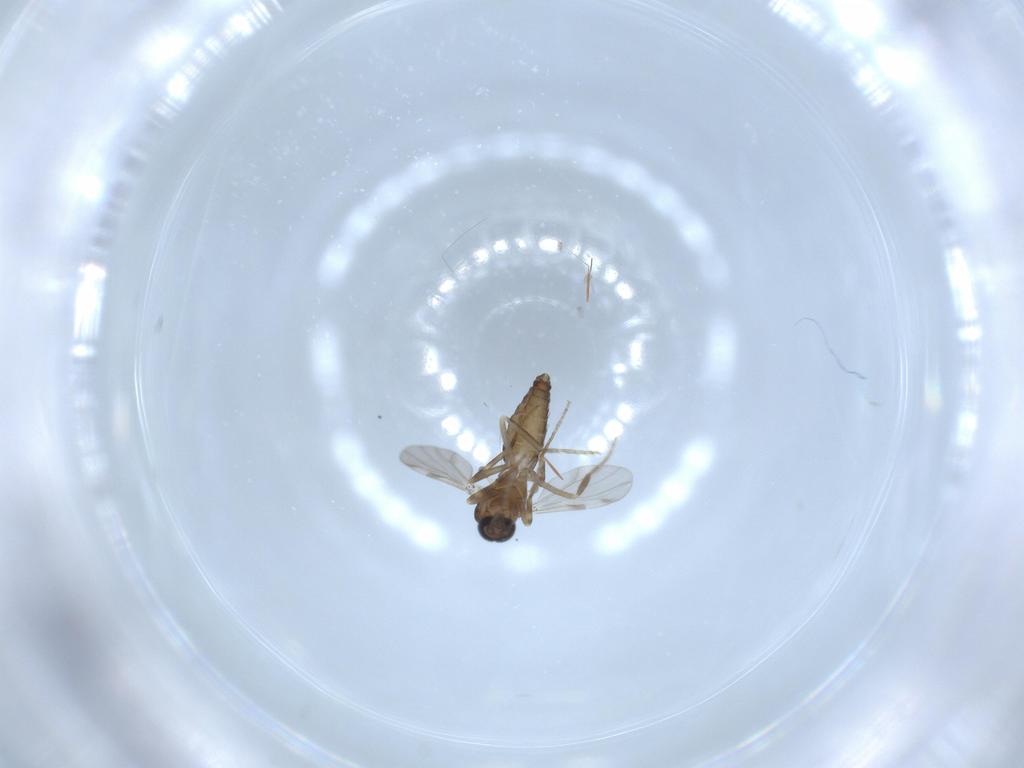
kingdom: Animalia
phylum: Arthropoda
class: Insecta
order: Diptera
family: Ceratopogonidae
